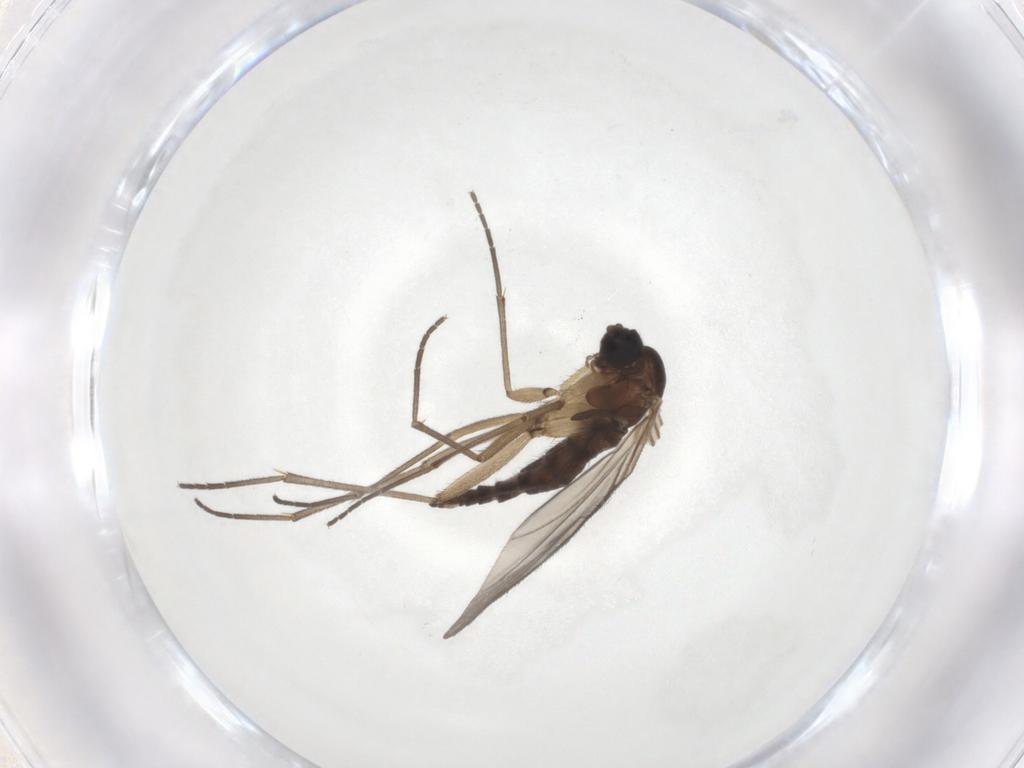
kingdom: Animalia
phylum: Arthropoda
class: Insecta
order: Diptera
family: Sciaridae
